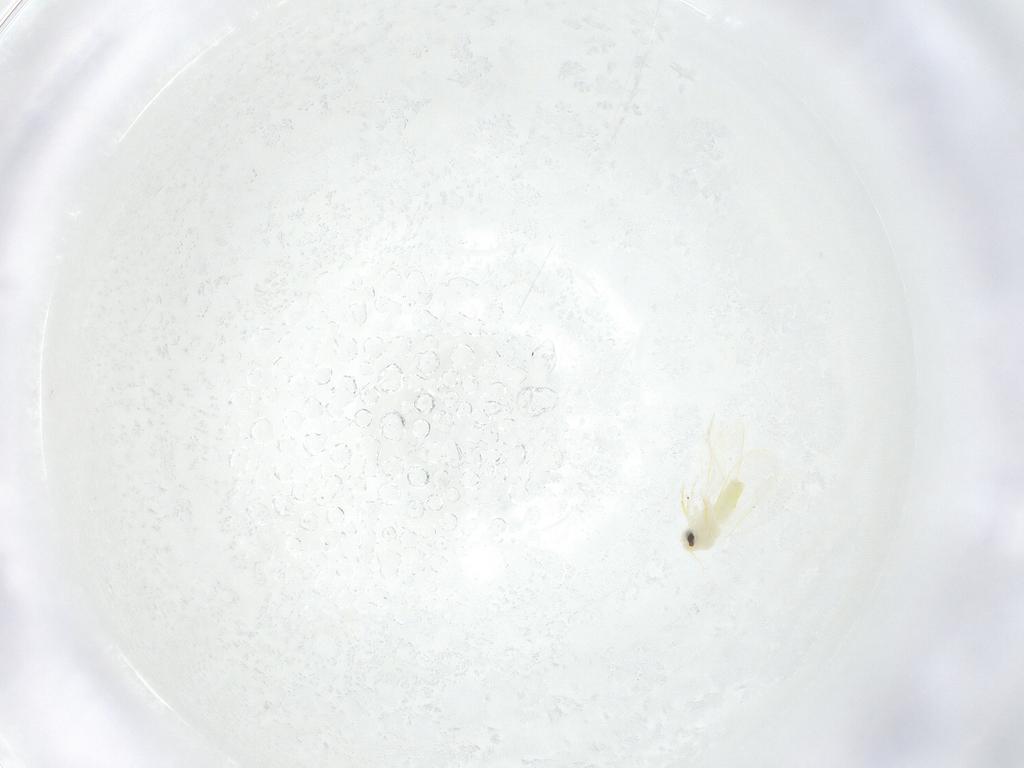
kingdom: Animalia
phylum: Arthropoda
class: Insecta
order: Hemiptera
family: Aleyrodidae
